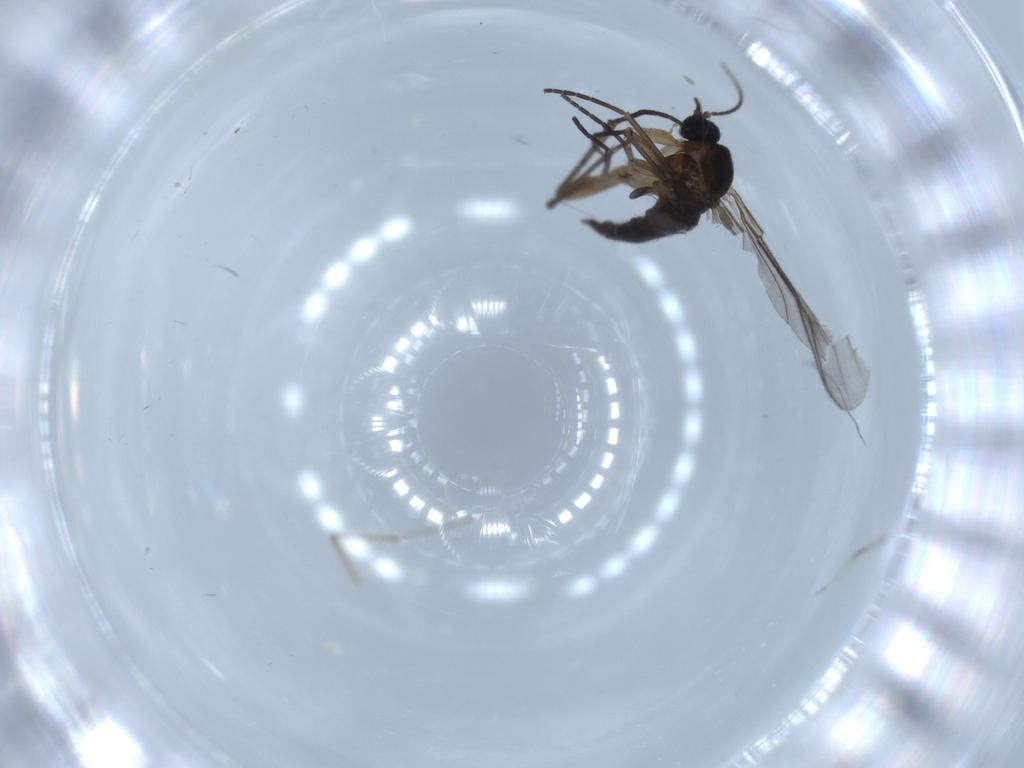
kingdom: Animalia
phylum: Arthropoda
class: Insecta
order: Diptera
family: Sciaridae
